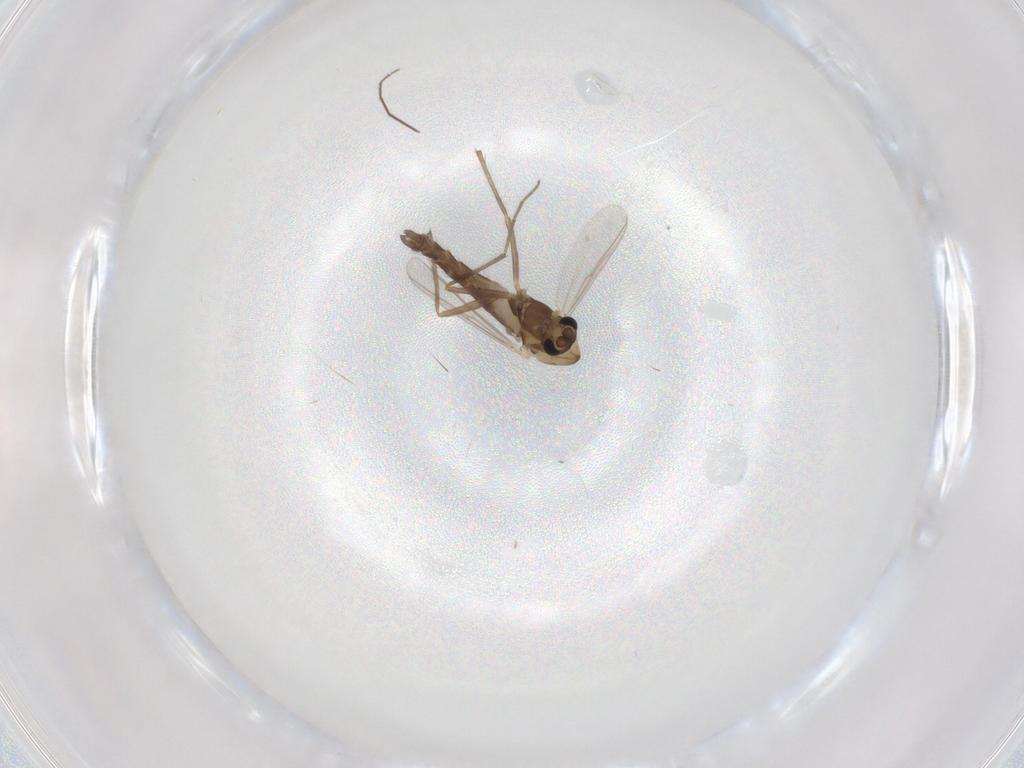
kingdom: Animalia
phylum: Arthropoda
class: Insecta
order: Diptera
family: Chironomidae
